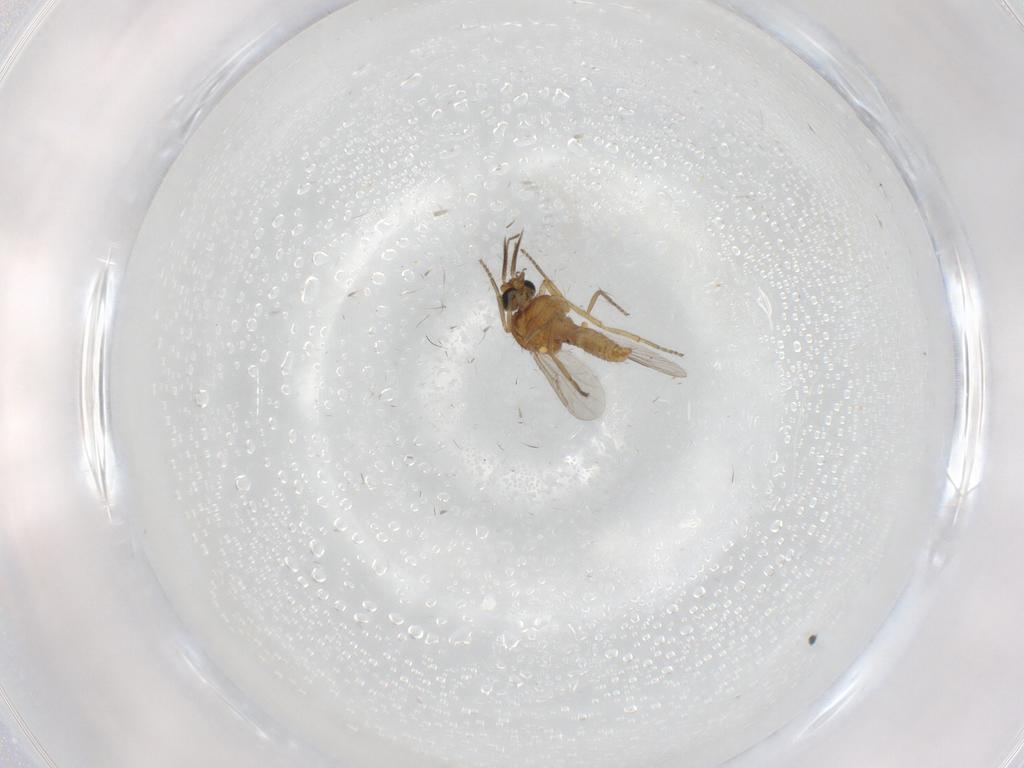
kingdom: Animalia
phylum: Arthropoda
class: Insecta
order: Diptera
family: Ceratopogonidae
